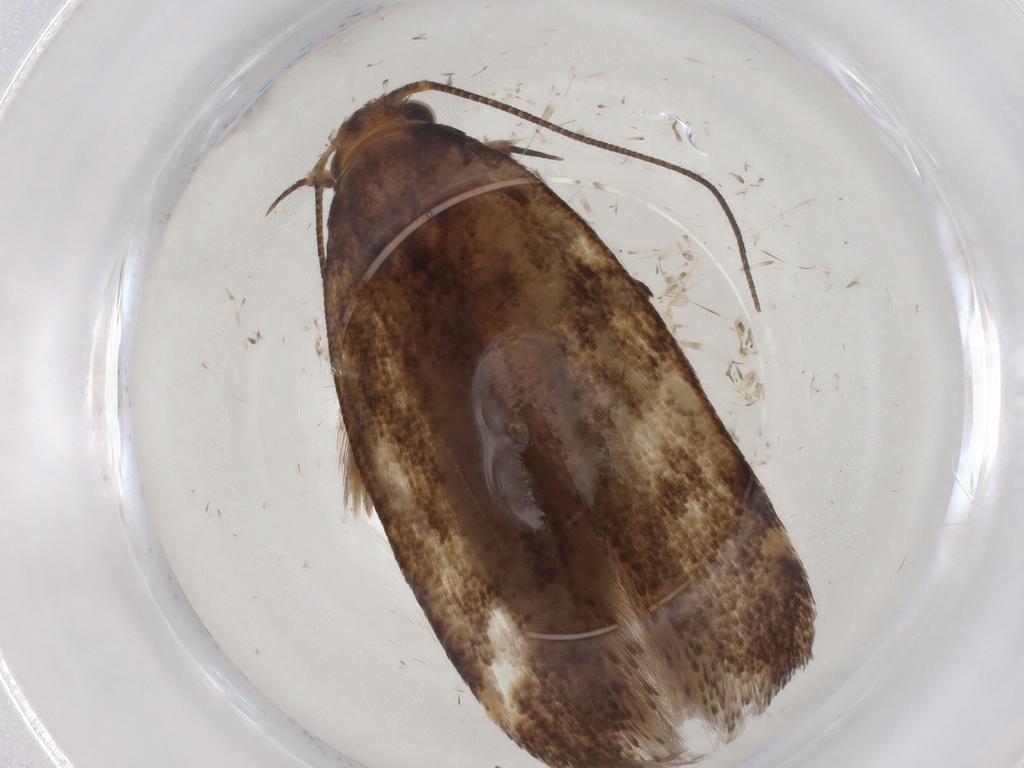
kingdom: Animalia
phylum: Arthropoda
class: Insecta
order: Lepidoptera
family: Gelechiidae
